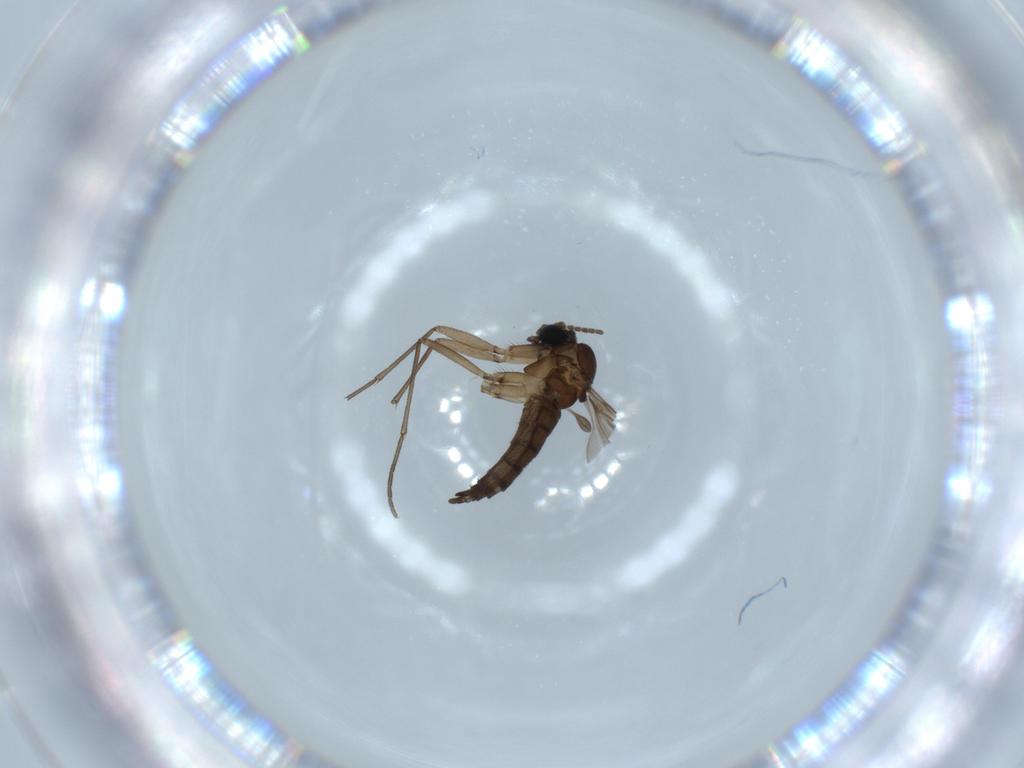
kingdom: Animalia
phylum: Arthropoda
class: Insecta
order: Diptera
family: Sciaridae
